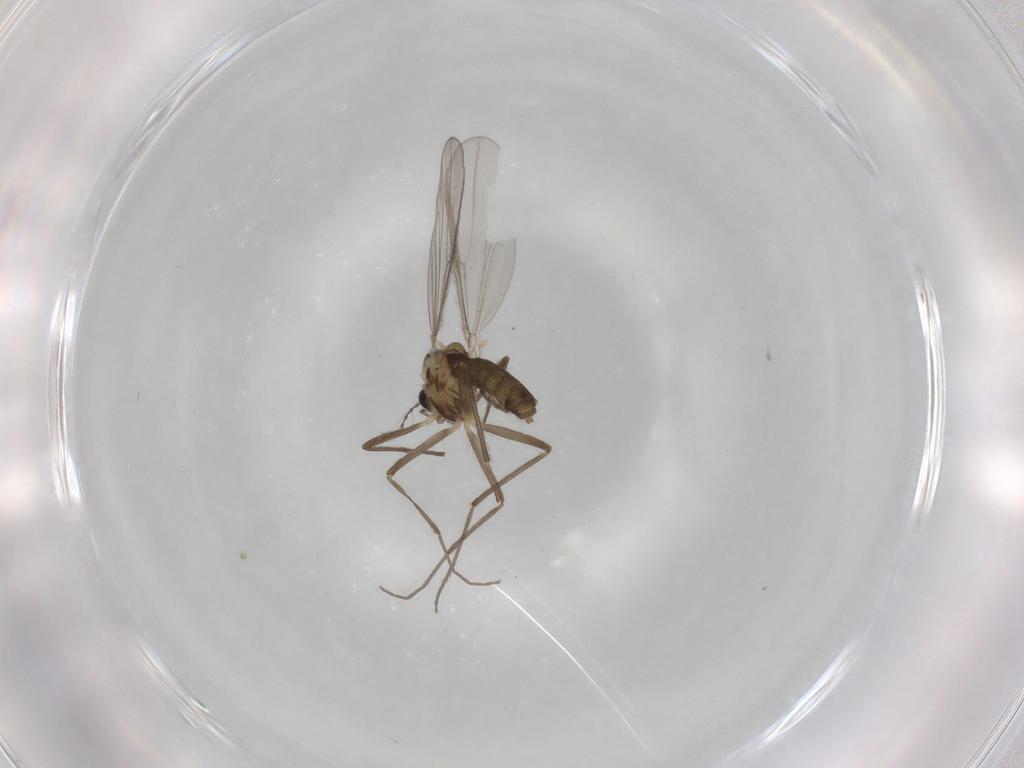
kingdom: Animalia
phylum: Arthropoda
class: Insecta
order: Diptera
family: Chironomidae
